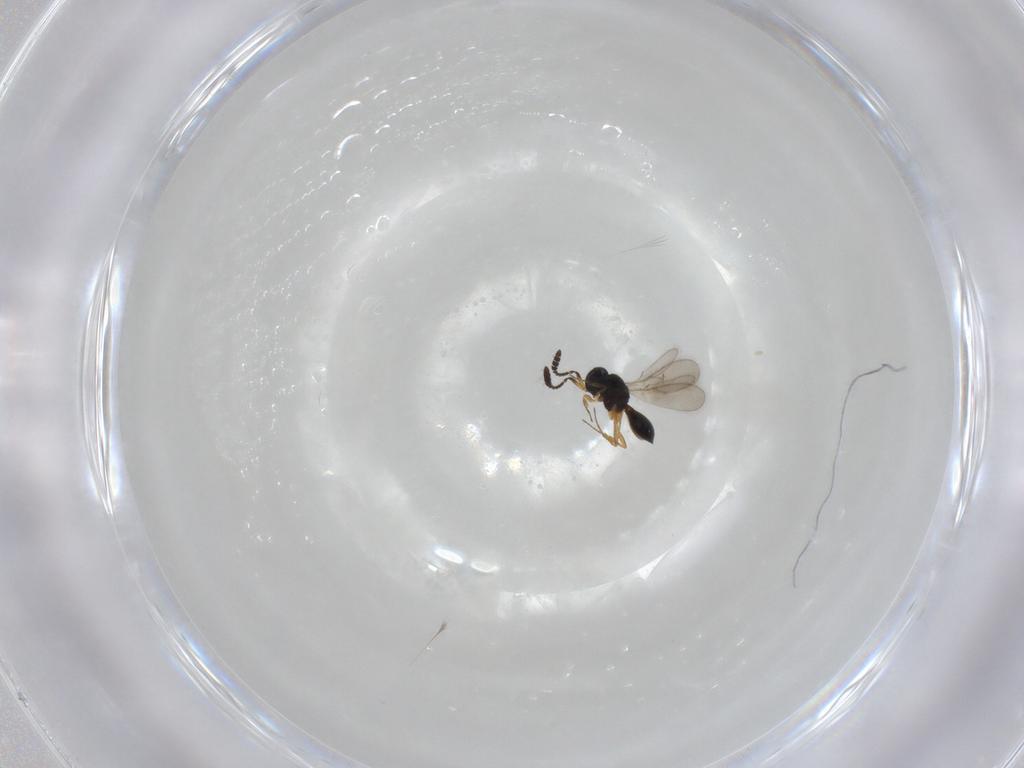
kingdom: Animalia
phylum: Arthropoda
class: Insecta
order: Hymenoptera
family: Scelionidae
